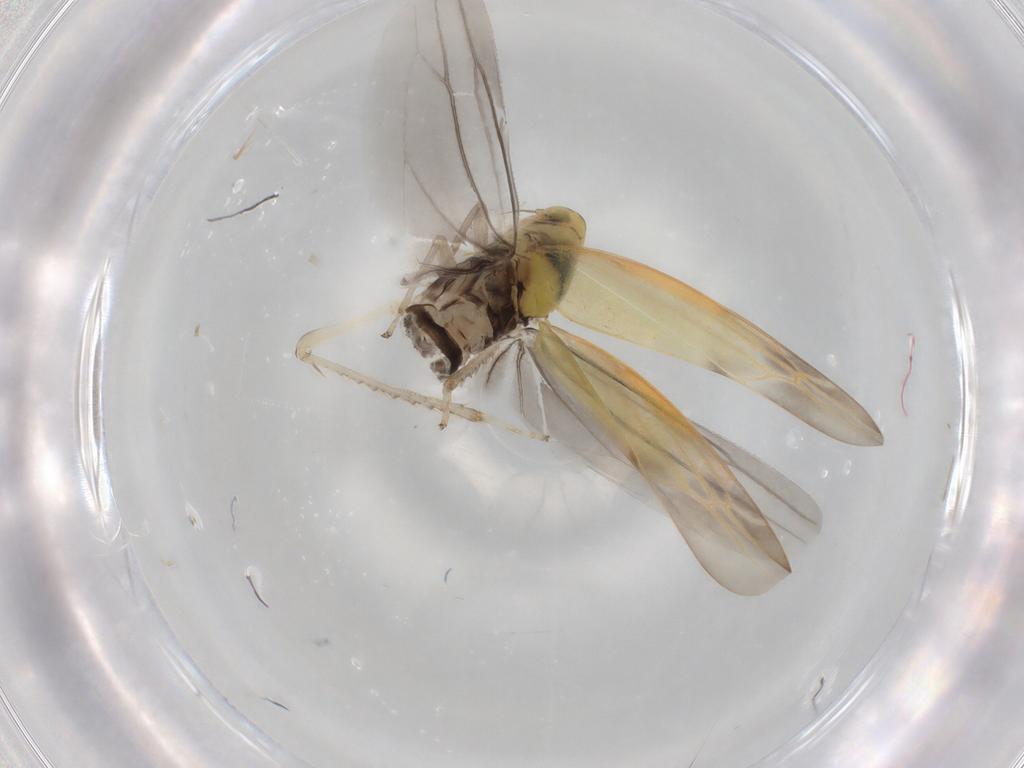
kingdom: Animalia
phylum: Arthropoda
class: Insecta
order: Hemiptera
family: Cicadellidae
